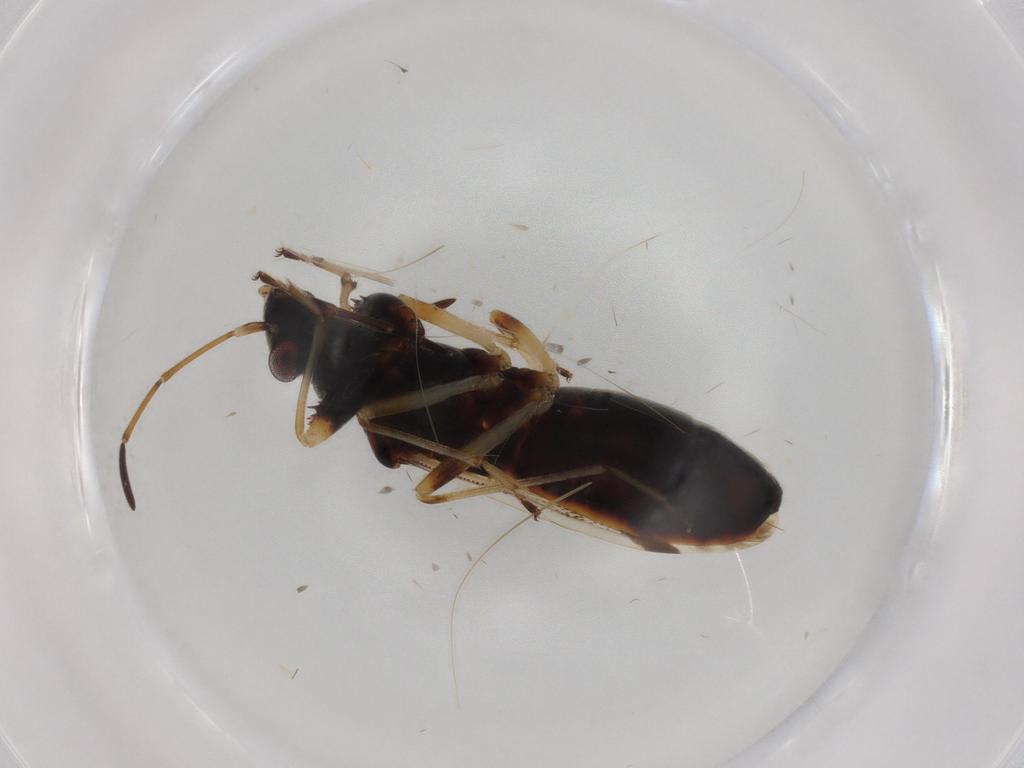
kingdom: Animalia
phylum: Arthropoda
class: Insecta
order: Hemiptera
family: Rhyparochromidae
